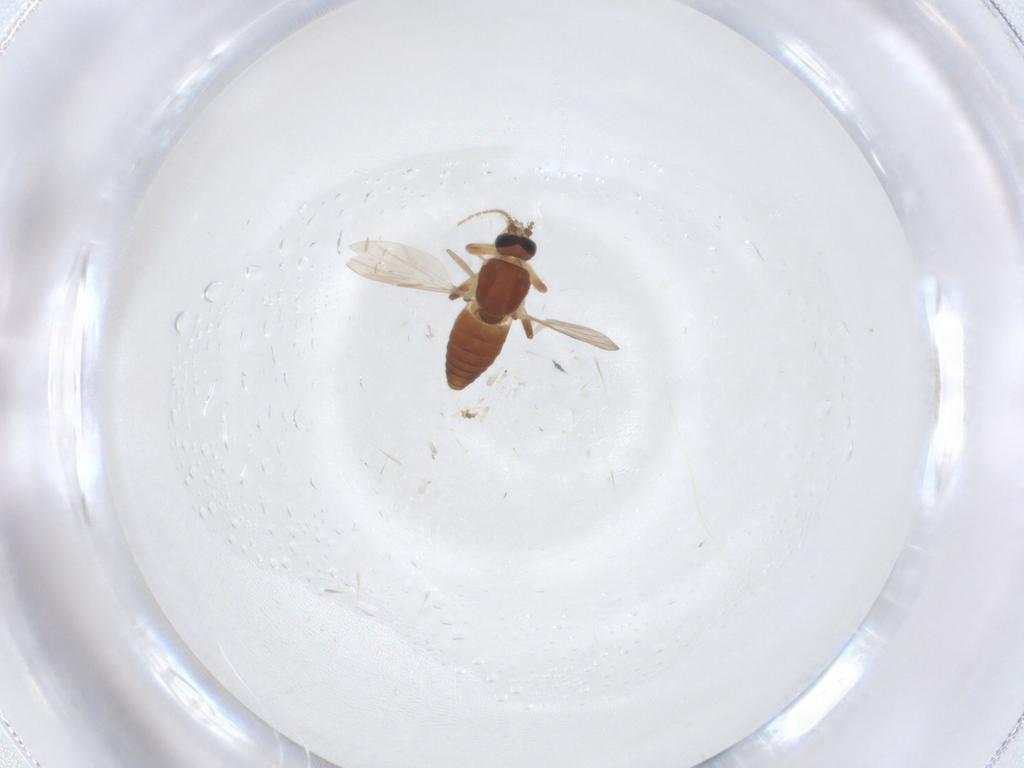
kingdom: Animalia
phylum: Arthropoda
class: Insecta
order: Diptera
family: Ceratopogonidae
